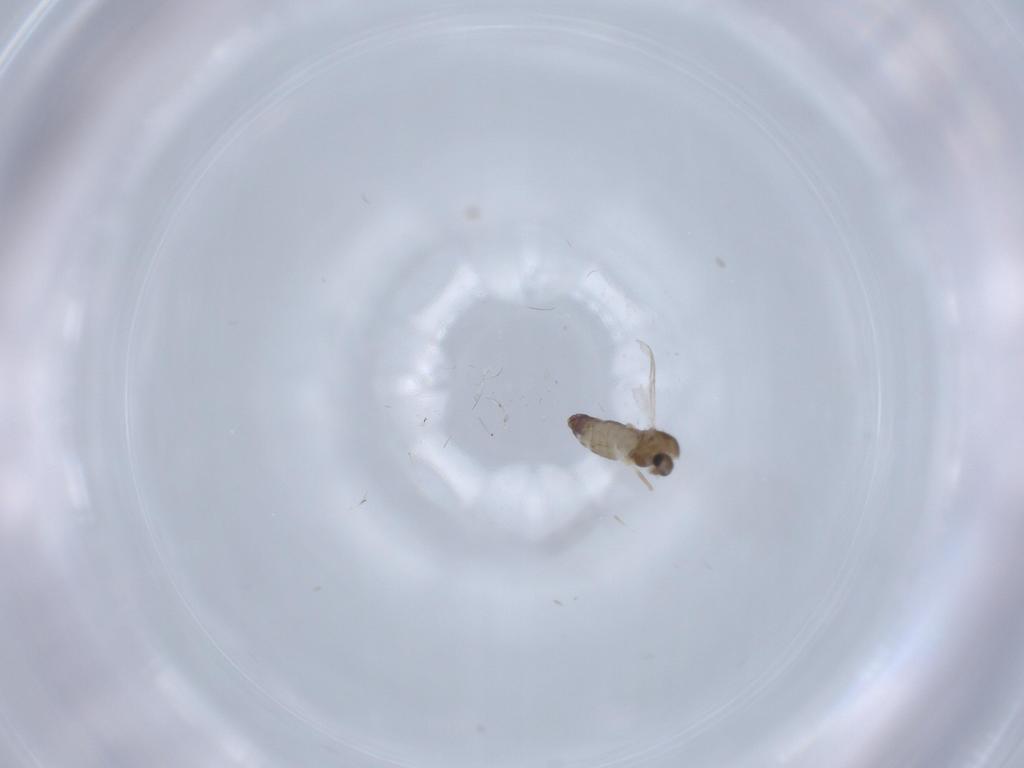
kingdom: Animalia
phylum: Arthropoda
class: Insecta
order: Diptera
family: Chironomidae
